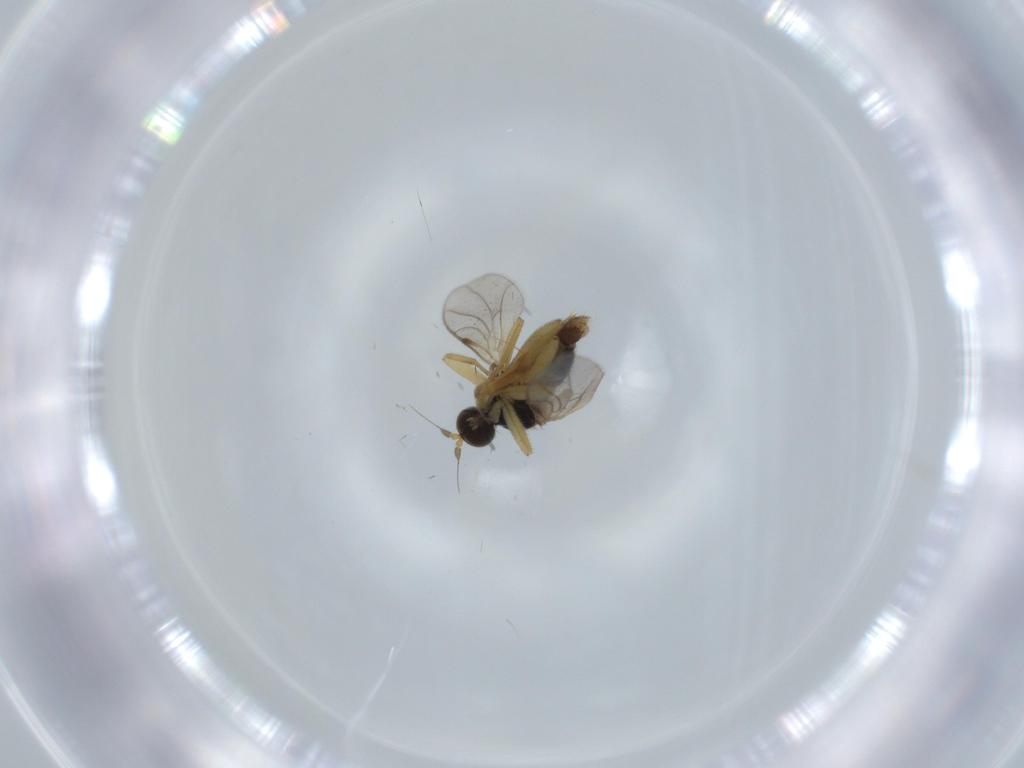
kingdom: Animalia
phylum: Arthropoda
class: Insecta
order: Diptera
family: Hybotidae
